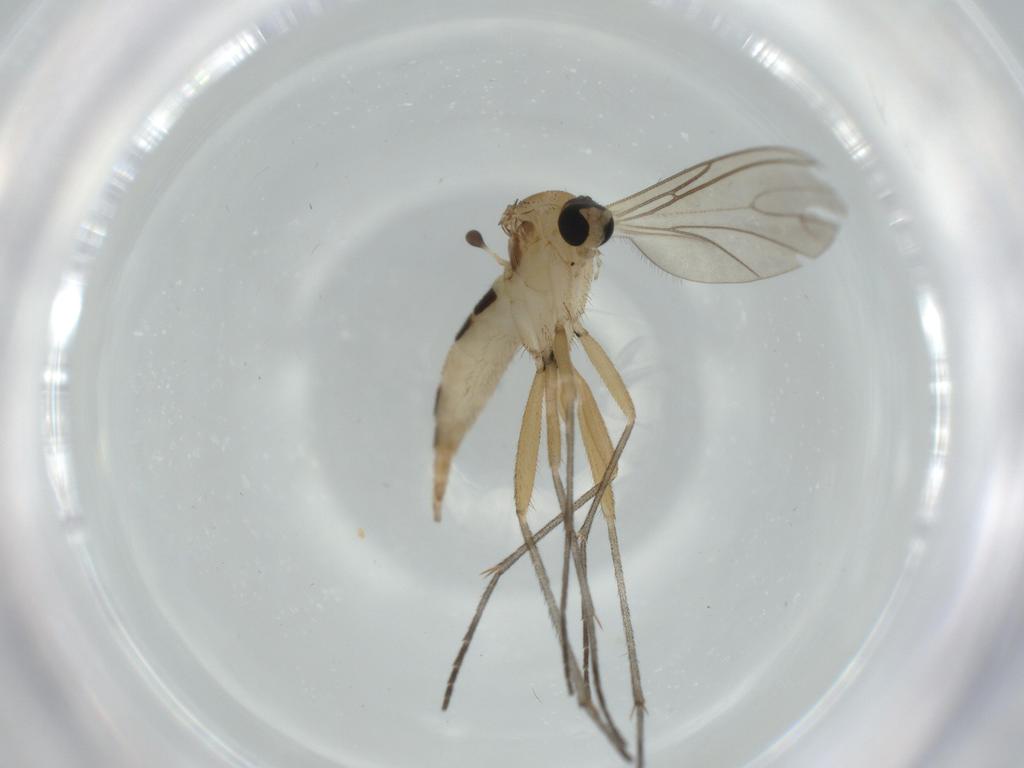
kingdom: Animalia
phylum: Arthropoda
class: Insecta
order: Diptera
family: Sciaridae
